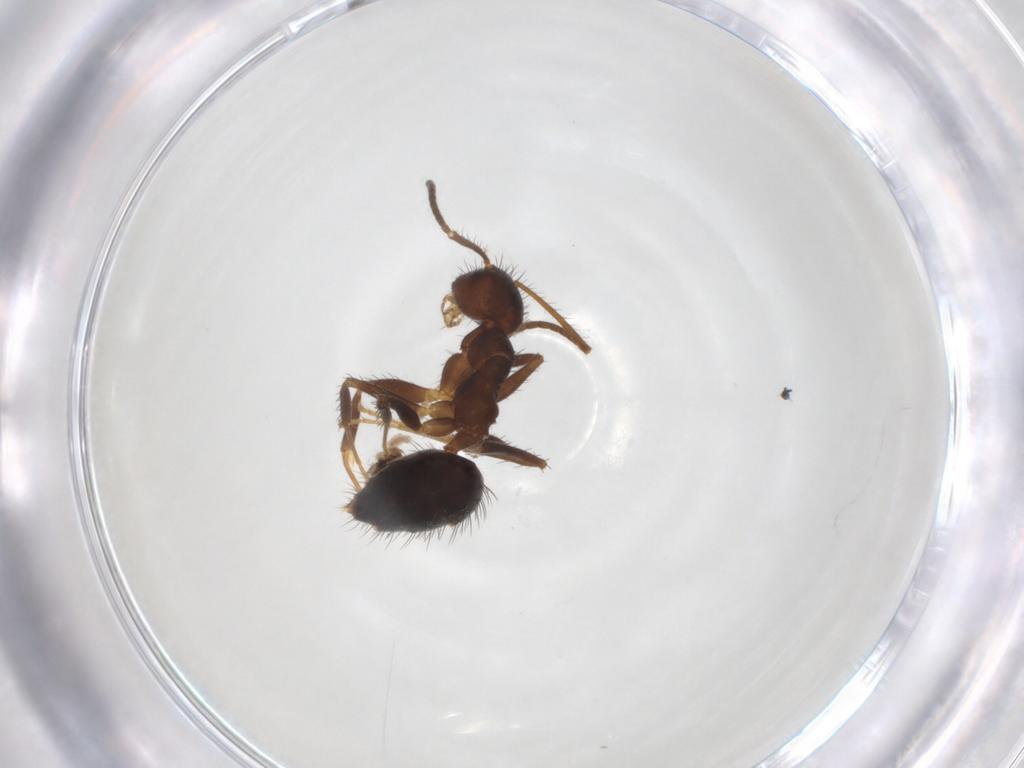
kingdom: Animalia
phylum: Arthropoda
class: Insecta
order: Hymenoptera
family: Formicidae
